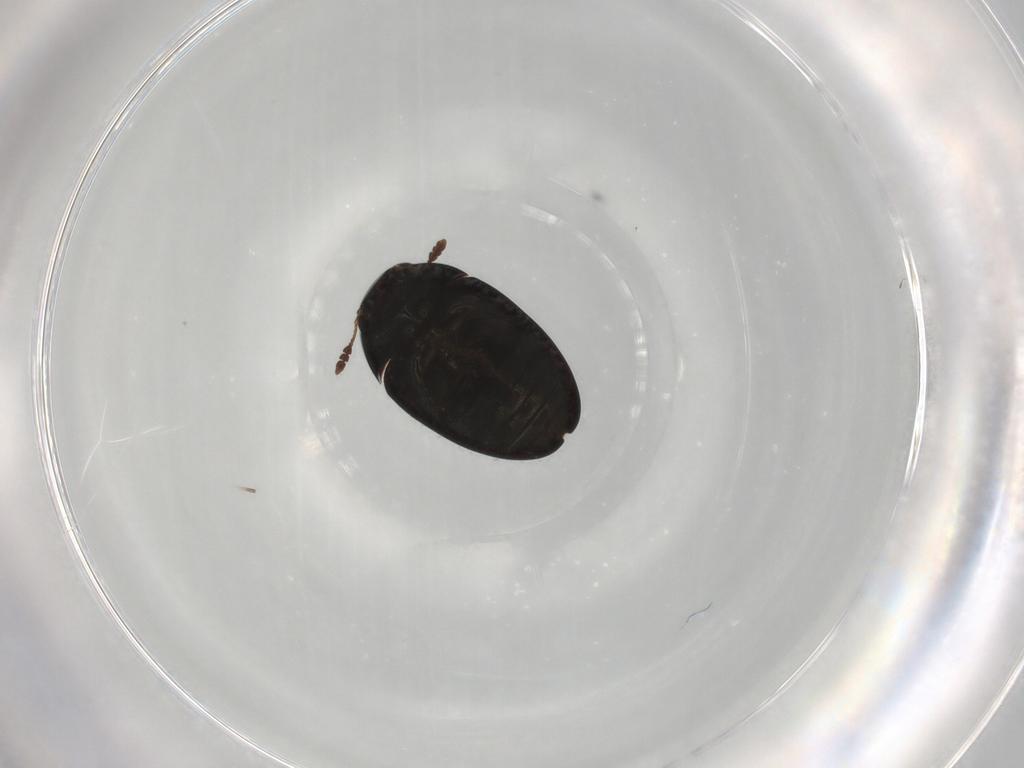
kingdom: Animalia
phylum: Arthropoda
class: Insecta
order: Coleoptera
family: Phalacridae
